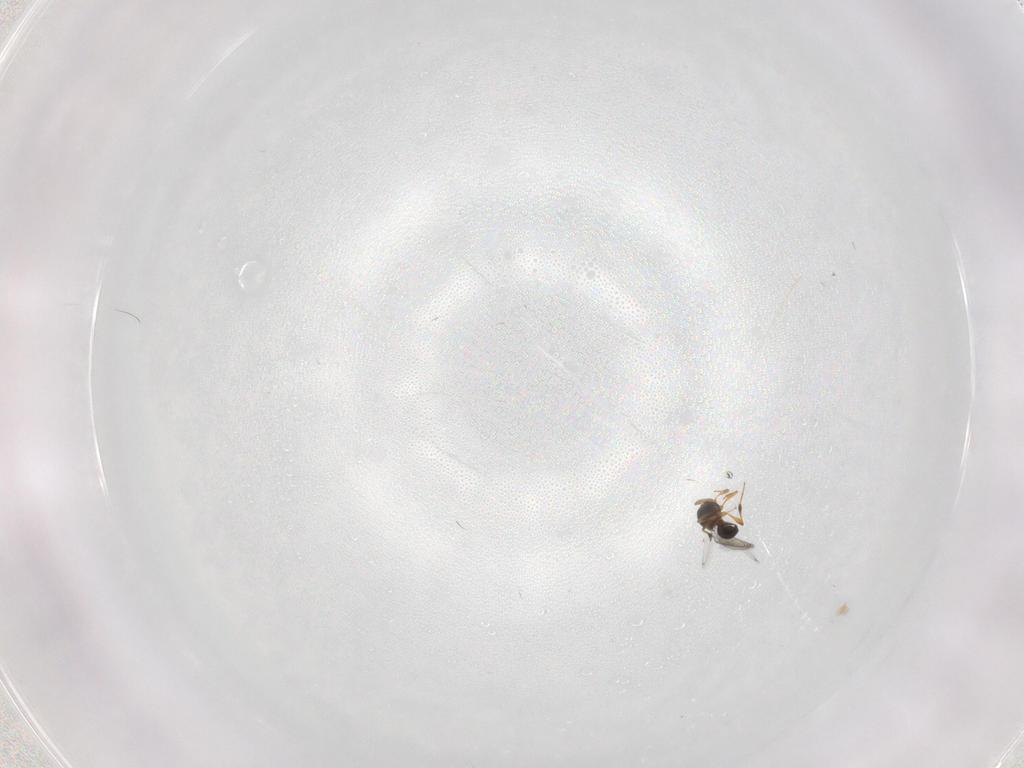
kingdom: Animalia
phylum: Arthropoda
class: Insecta
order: Hymenoptera
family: Platygastridae
